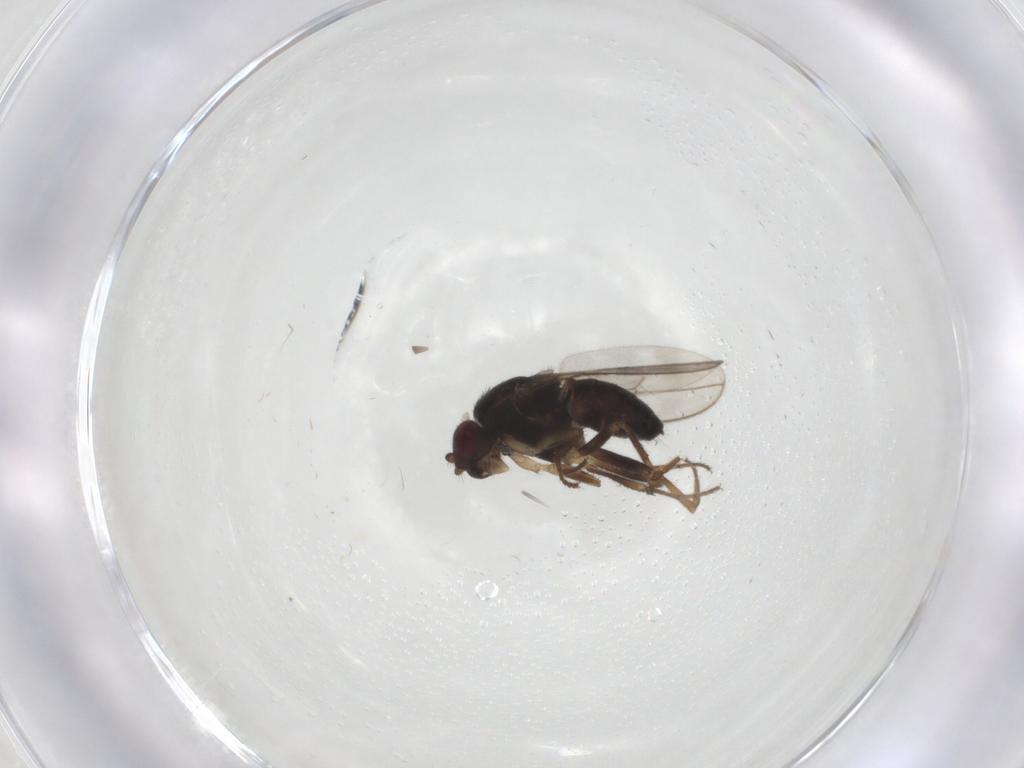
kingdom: Animalia
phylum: Arthropoda
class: Insecta
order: Diptera
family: Sphaeroceridae
